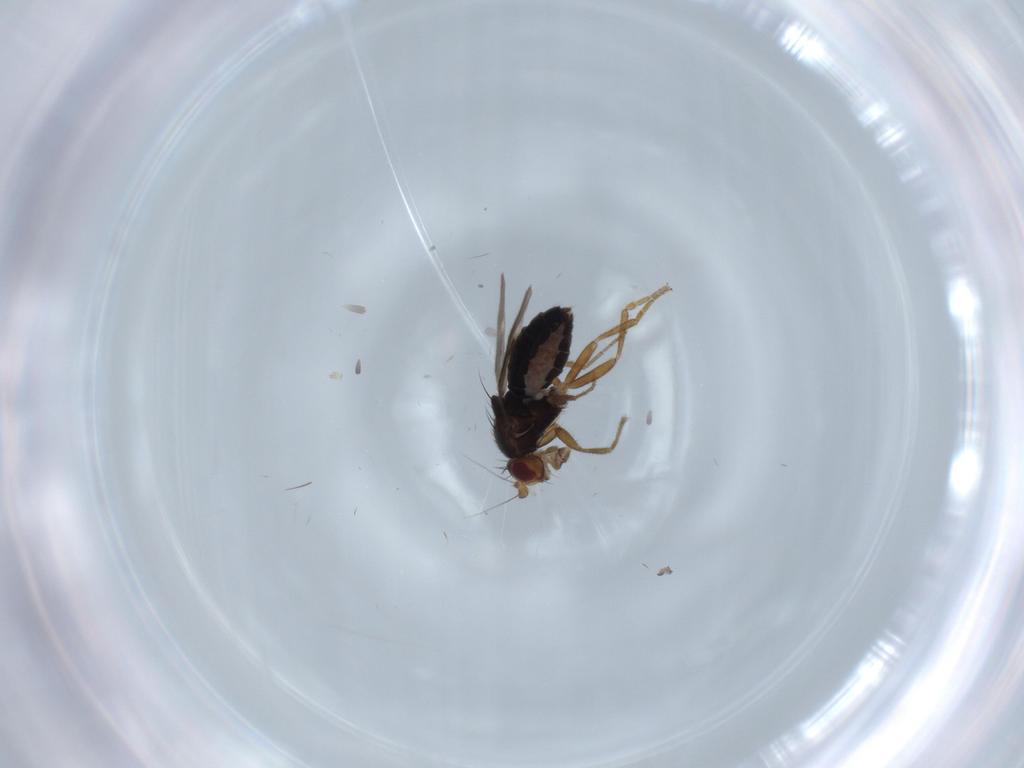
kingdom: Animalia
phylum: Arthropoda
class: Insecta
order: Diptera
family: Sphaeroceridae
